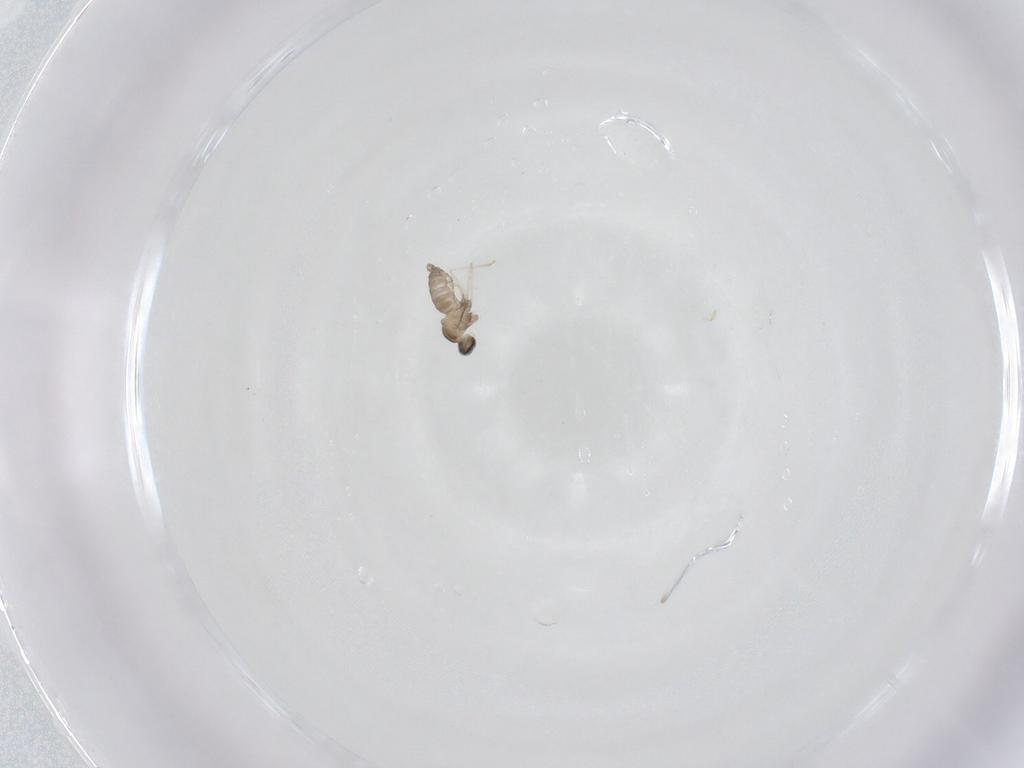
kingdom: Animalia
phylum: Arthropoda
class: Insecta
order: Diptera
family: Cecidomyiidae
